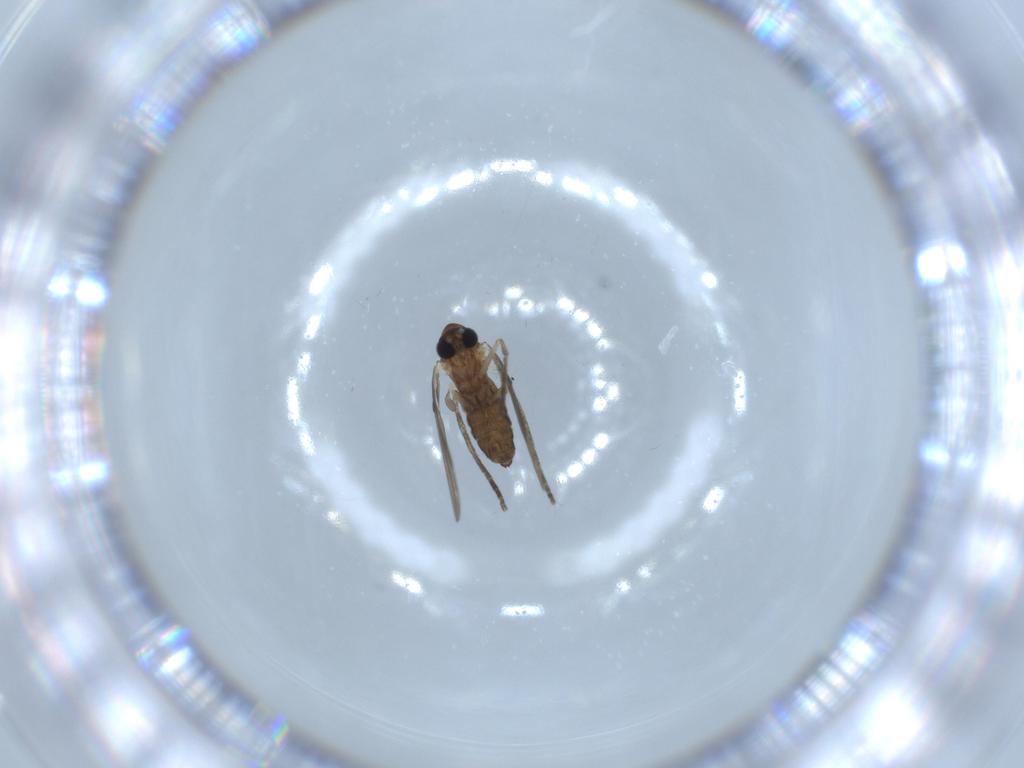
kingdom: Animalia
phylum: Arthropoda
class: Insecta
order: Diptera
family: Psychodidae
